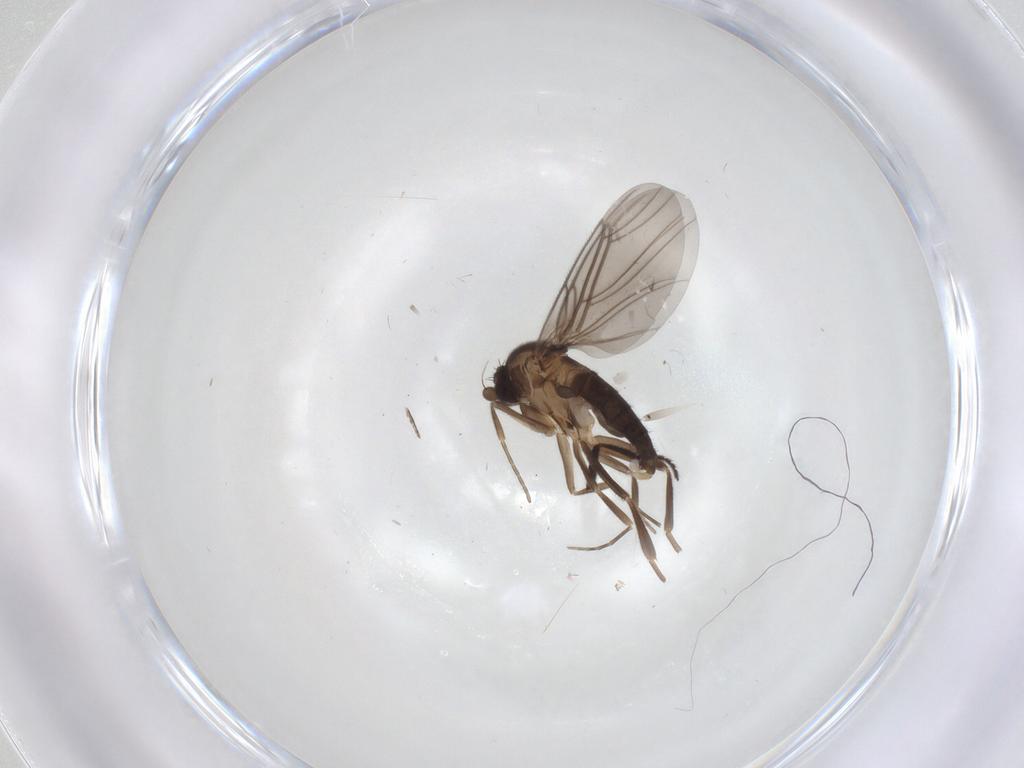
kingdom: Animalia
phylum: Arthropoda
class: Insecta
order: Diptera
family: Milichiidae
